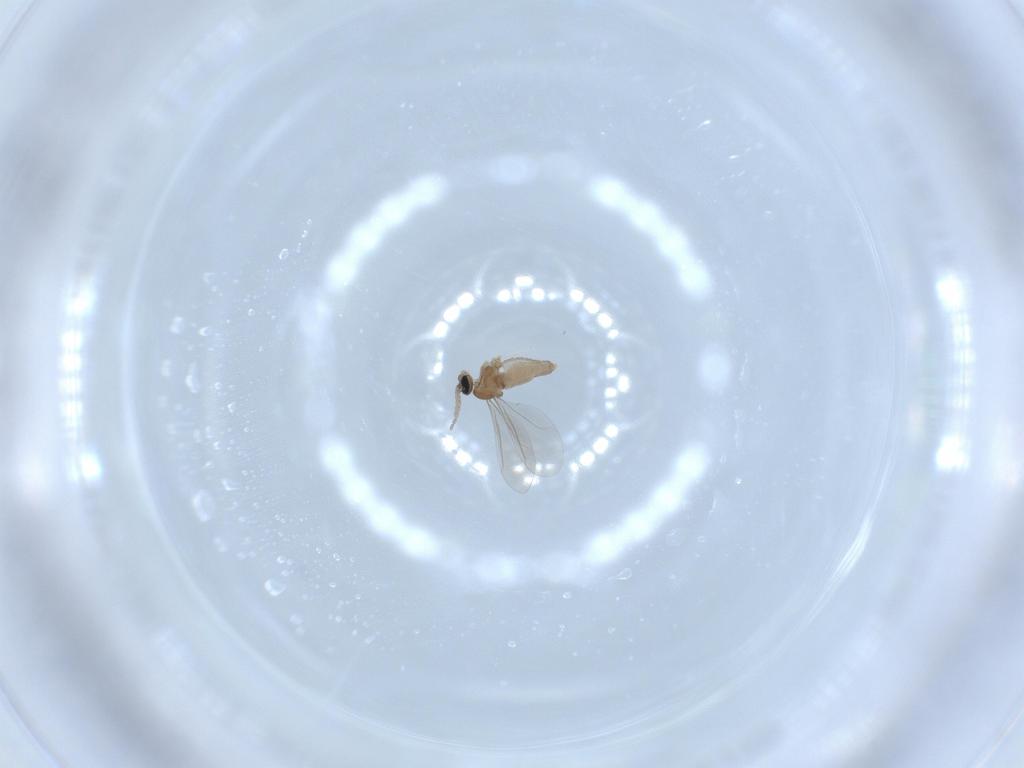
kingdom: Animalia
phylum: Arthropoda
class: Insecta
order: Diptera
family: Cecidomyiidae
